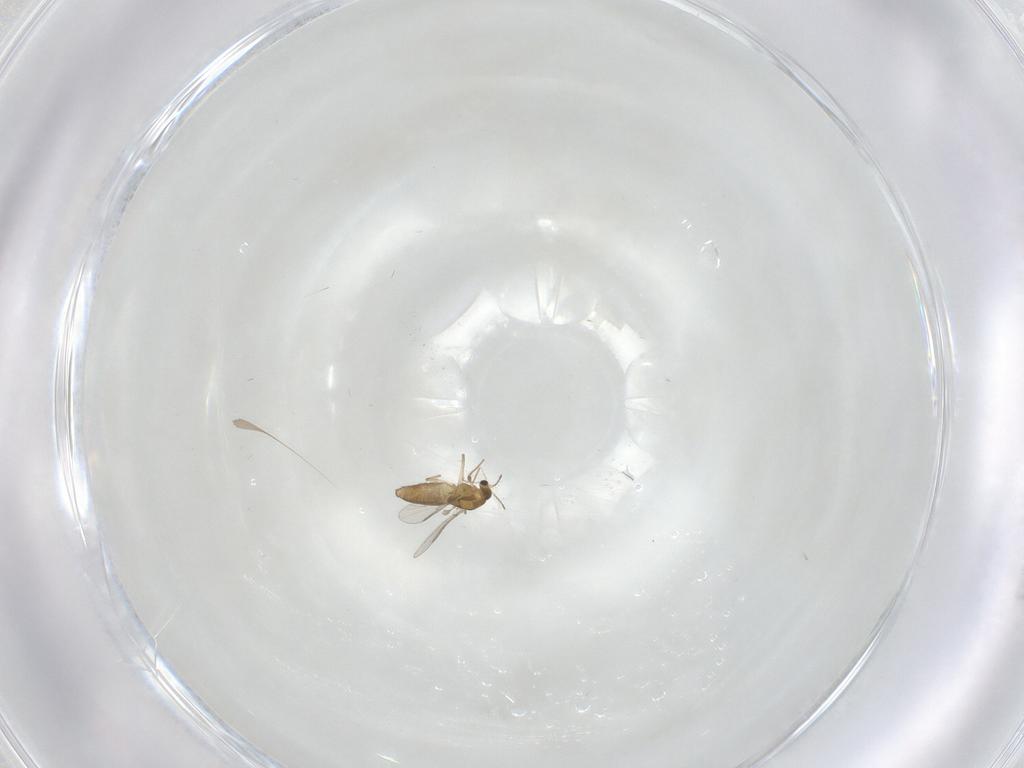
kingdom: Animalia
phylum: Arthropoda
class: Insecta
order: Diptera
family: Chironomidae
